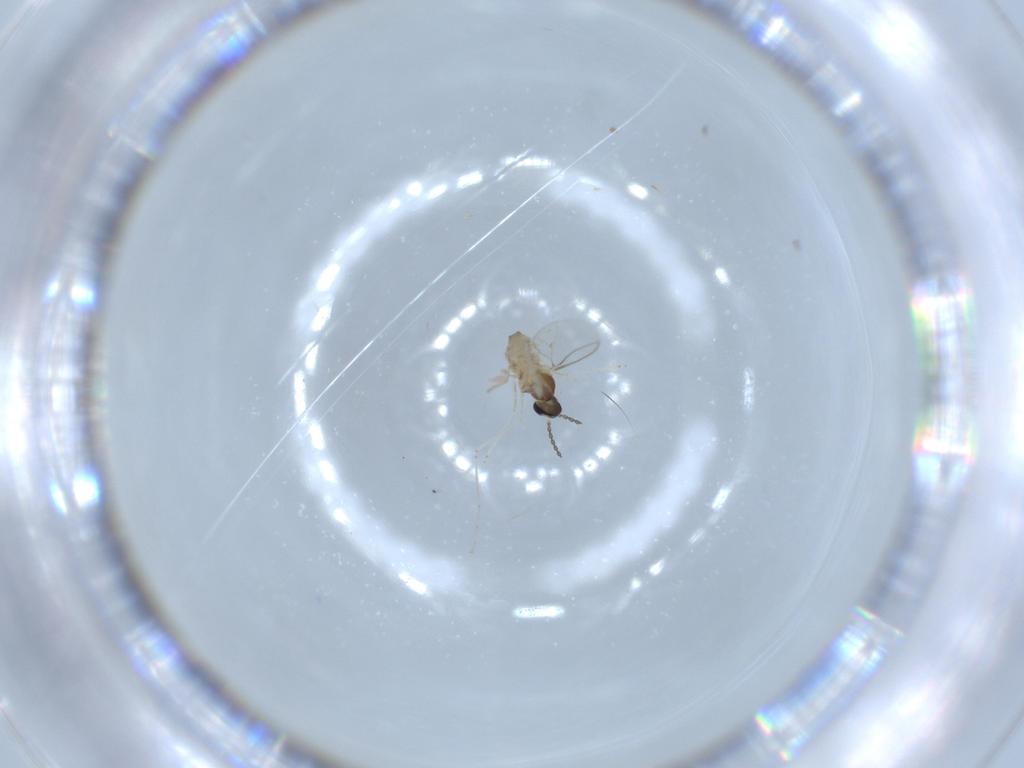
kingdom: Animalia
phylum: Arthropoda
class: Insecta
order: Diptera
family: Cecidomyiidae
